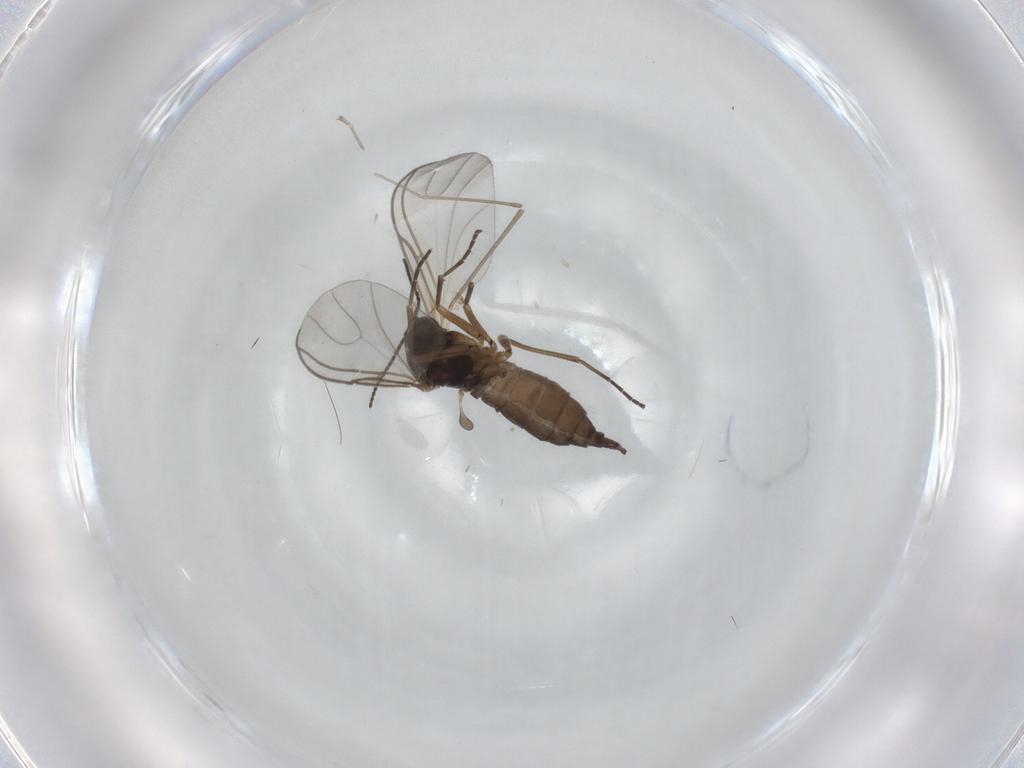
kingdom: Animalia
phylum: Arthropoda
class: Insecta
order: Diptera
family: Sciaridae
